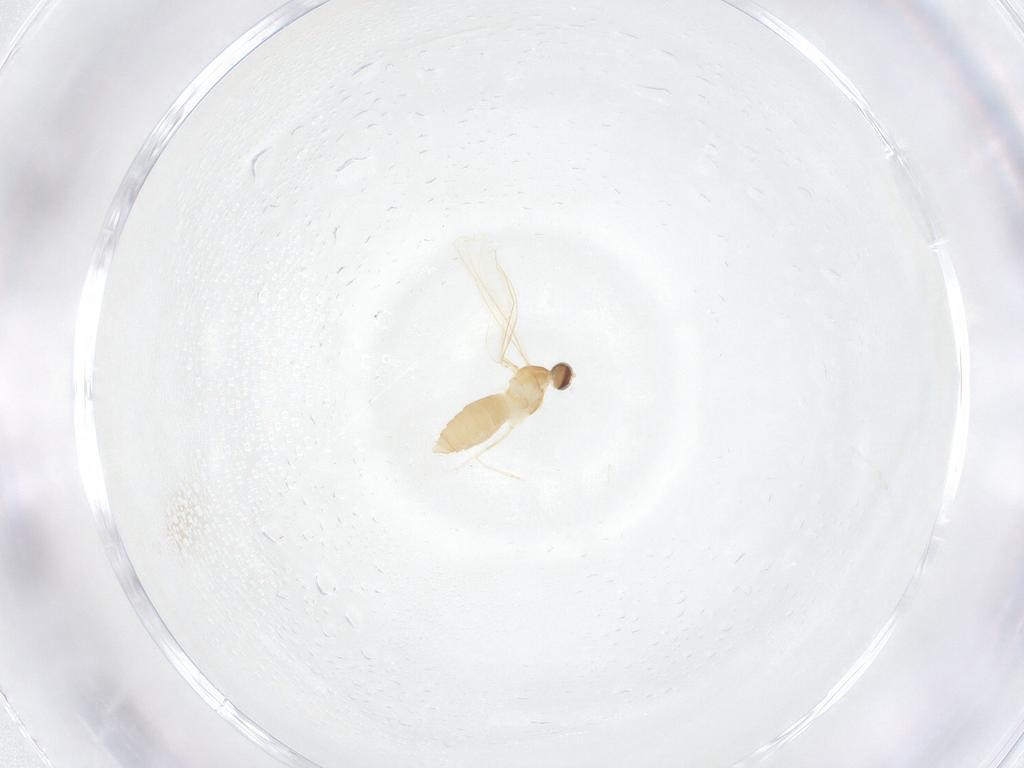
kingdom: Animalia
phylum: Arthropoda
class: Insecta
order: Diptera
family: Cecidomyiidae
